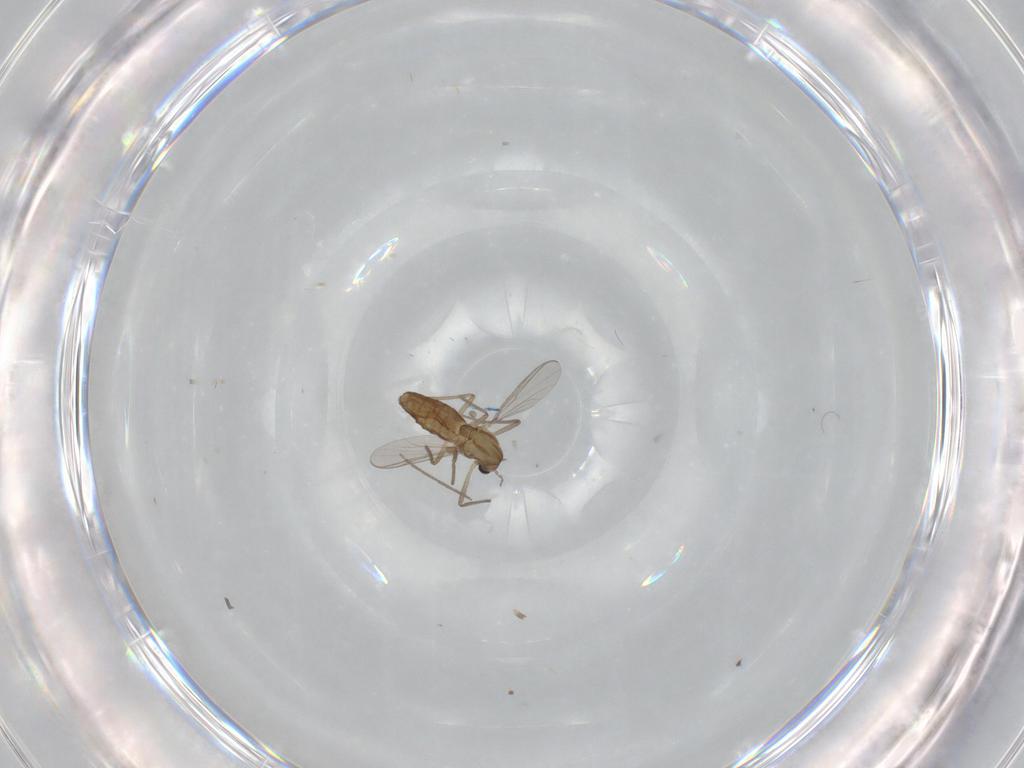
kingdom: Animalia
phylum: Arthropoda
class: Insecta
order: Diptera
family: Chironomidae
